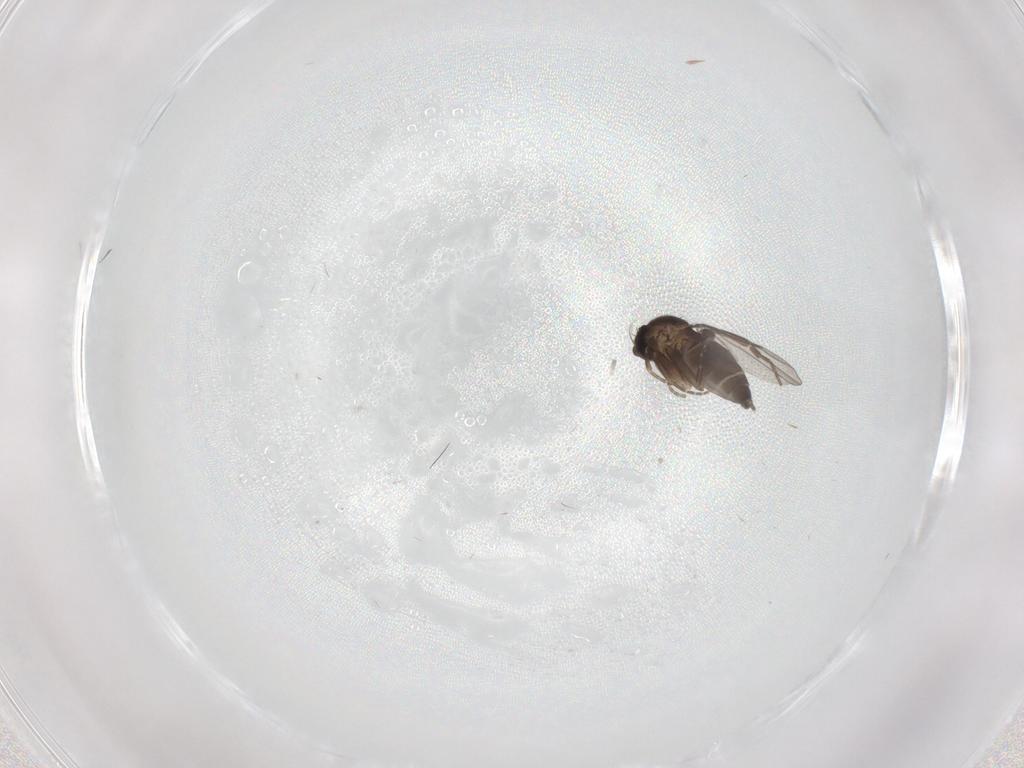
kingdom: Animalia
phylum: Arthropoda
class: Insecta
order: Diptera
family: Phoridae
